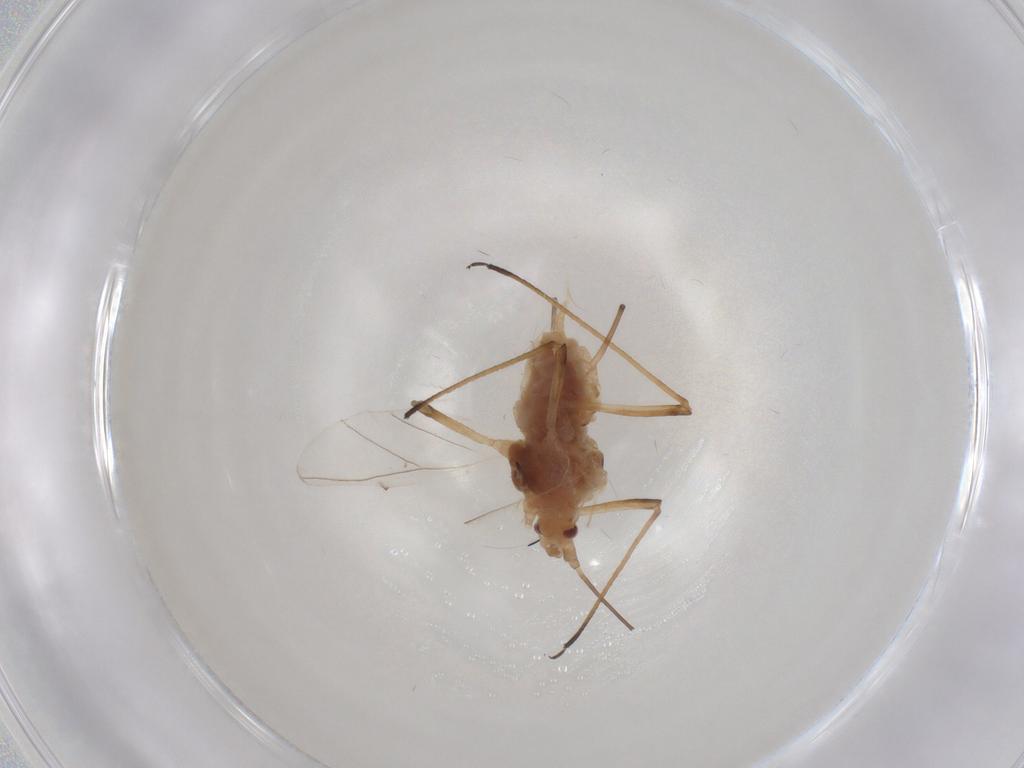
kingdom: Animalia
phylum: Arthropoda
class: Insecta
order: Hemiptera
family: Aphididae
